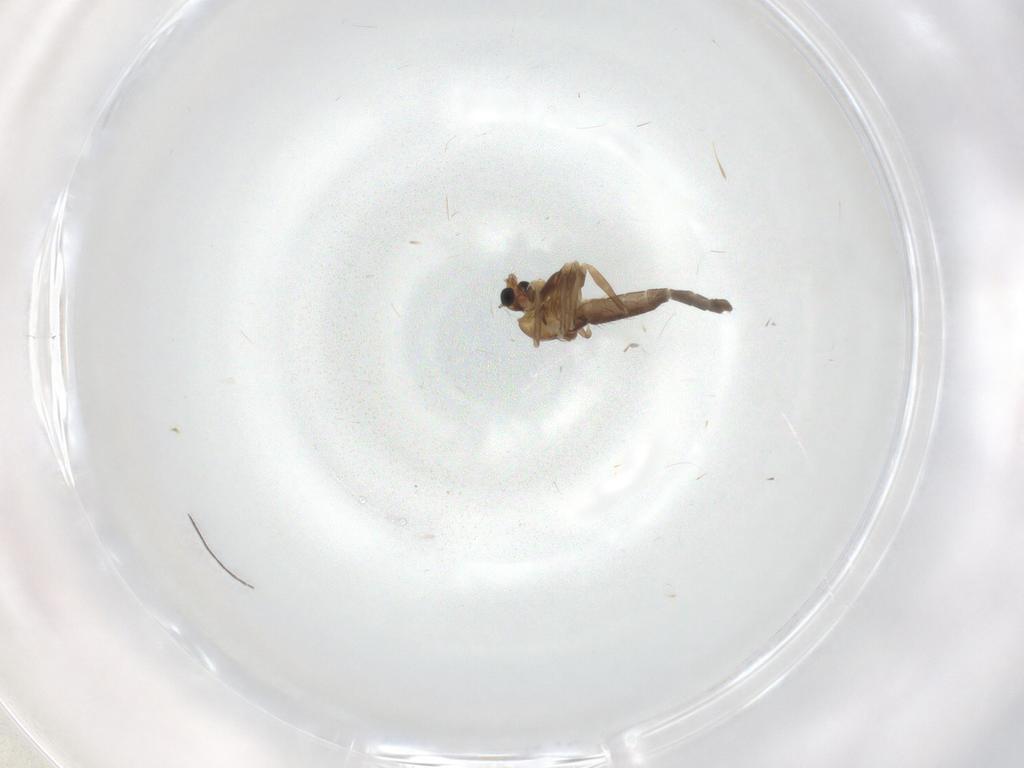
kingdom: Animalia
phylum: Arthropoda
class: Insecta
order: Diptera
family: Chironomidae
